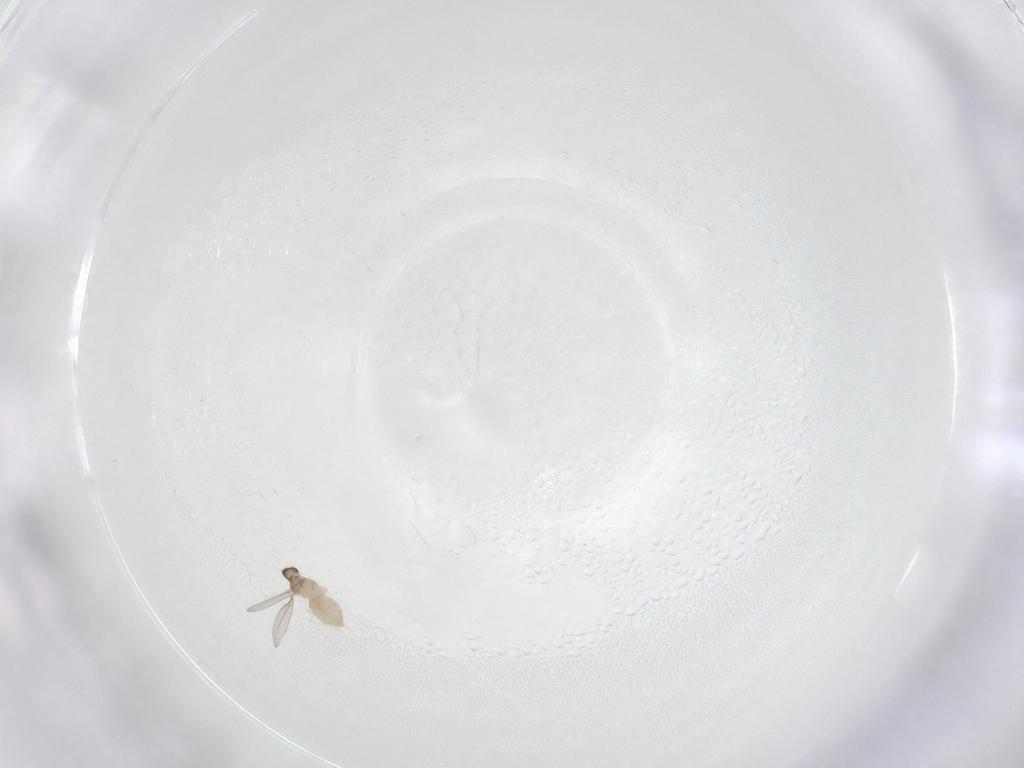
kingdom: Animalia
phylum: Arthropoda
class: Insecta
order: Diptera
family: Cecidomyiidae
